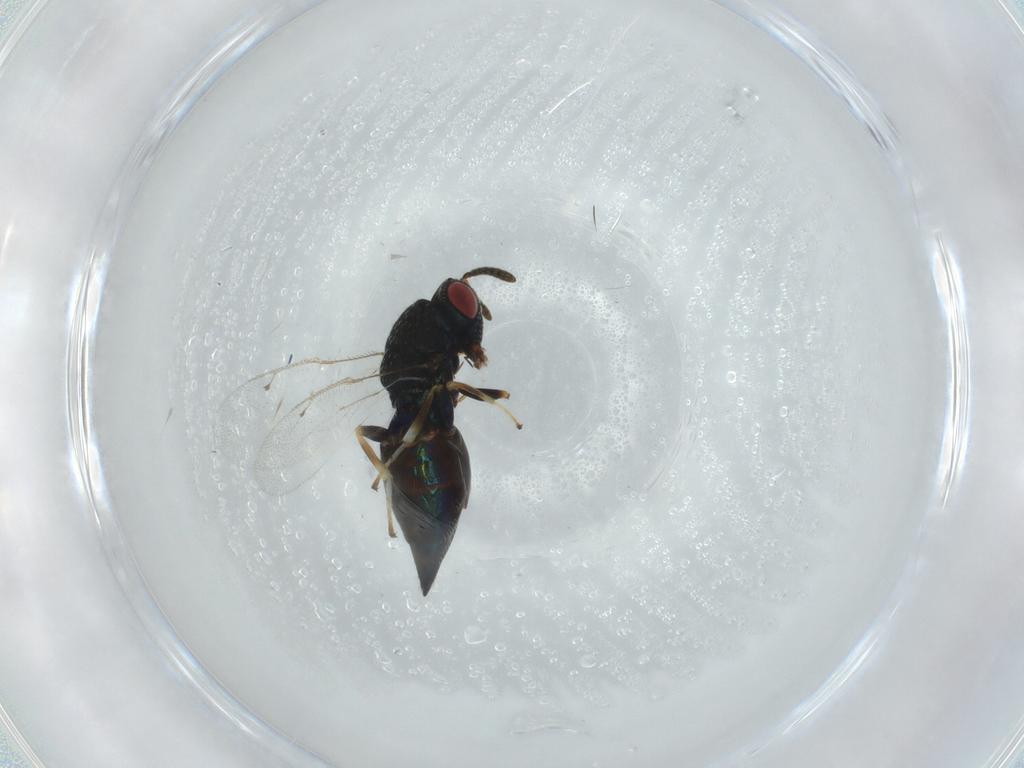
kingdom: Animalia
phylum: Arthropoda
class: Insecta
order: Hymenoptera
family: Pteromalidae
